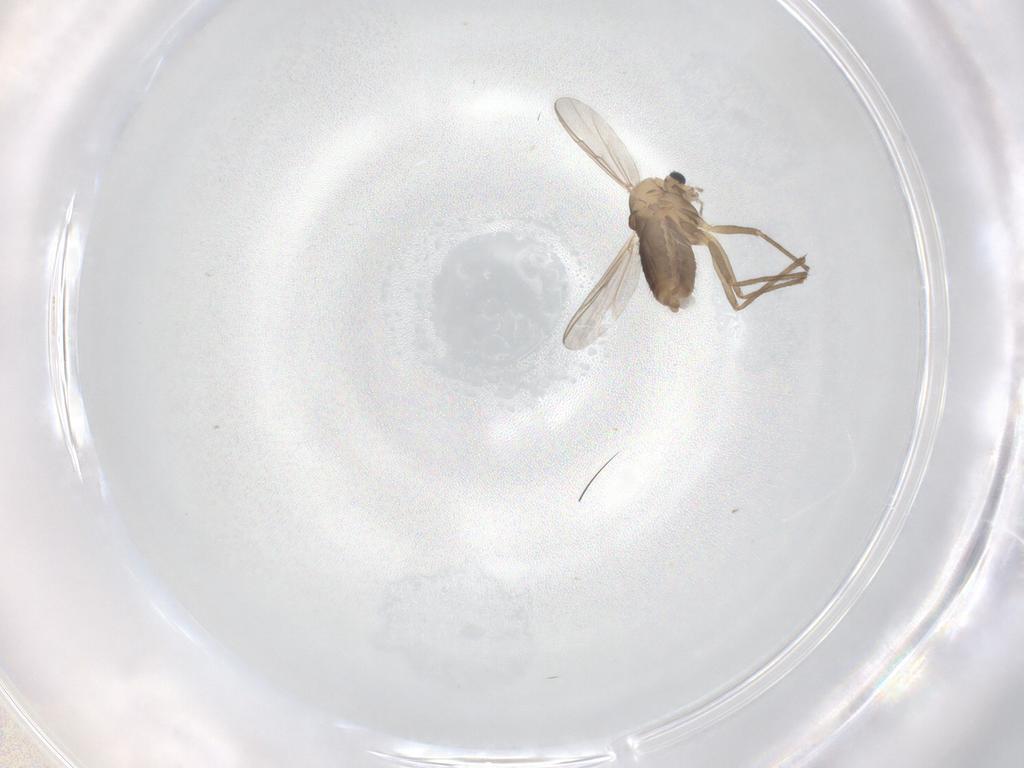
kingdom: Animalia
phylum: Arthropoda
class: Insecta
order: Diptera
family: Chironomidae
